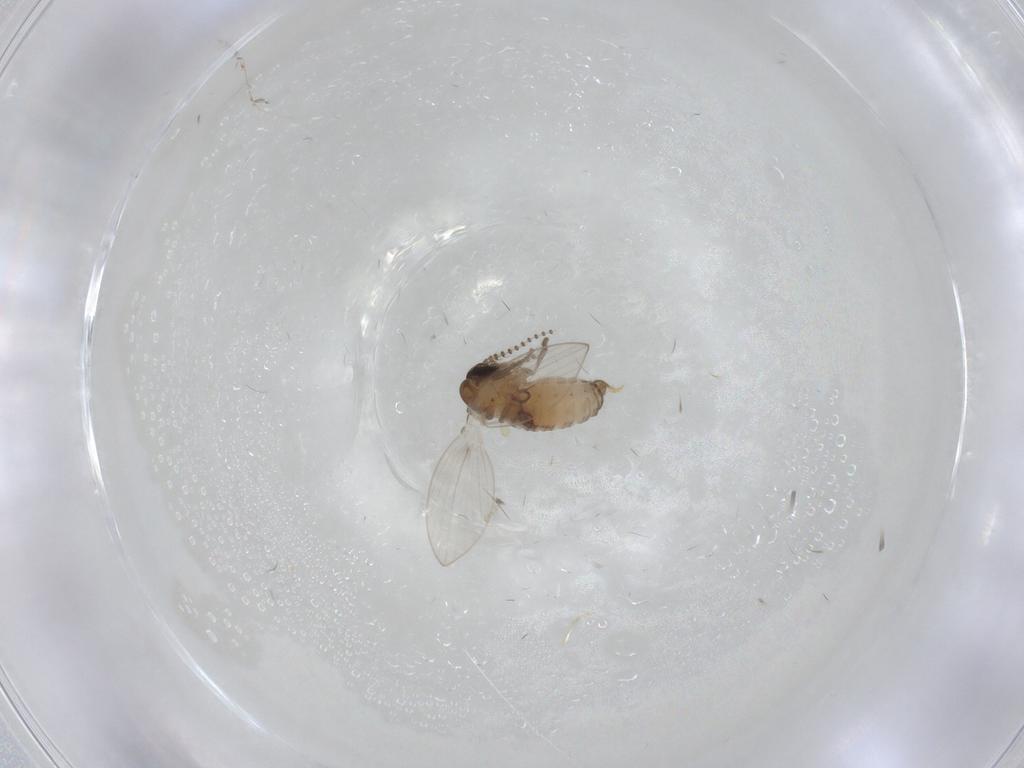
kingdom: Animalia
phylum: Arthropoda
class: Insecta
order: Diptera
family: Psychodidae
